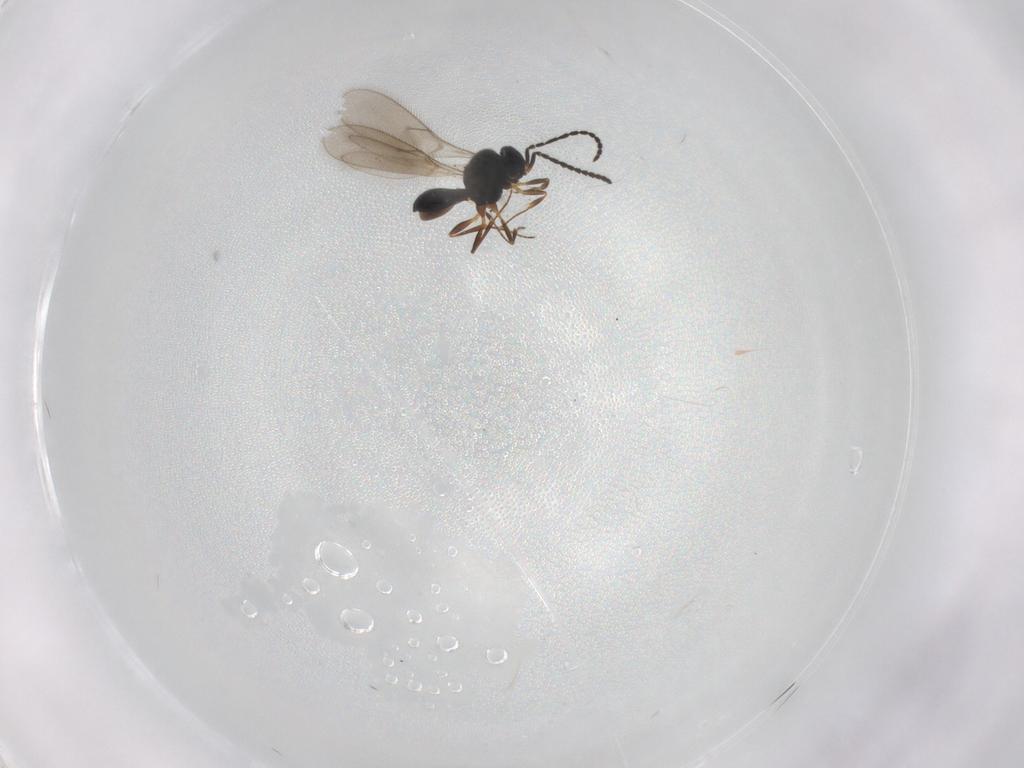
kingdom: Animalia
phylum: Arthropoda
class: Insecta
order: Hymenoptera
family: Scelionidae
